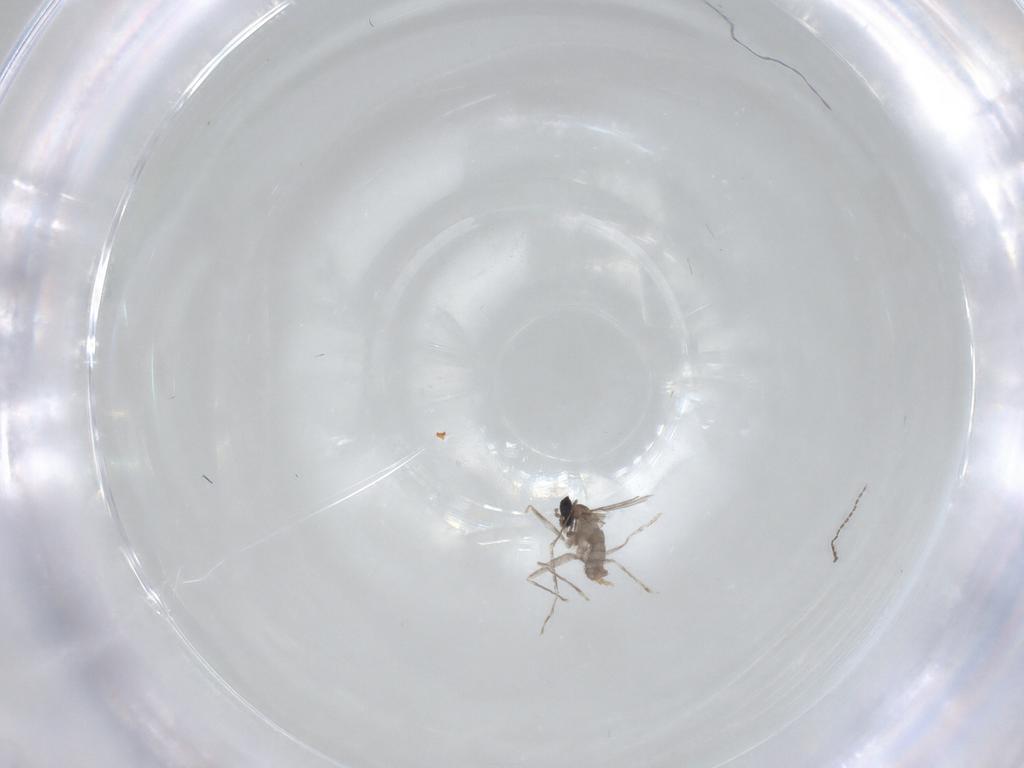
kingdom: Animalia
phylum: Arthropoda
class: Insecta
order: Diptera
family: Cecidomyiidae
